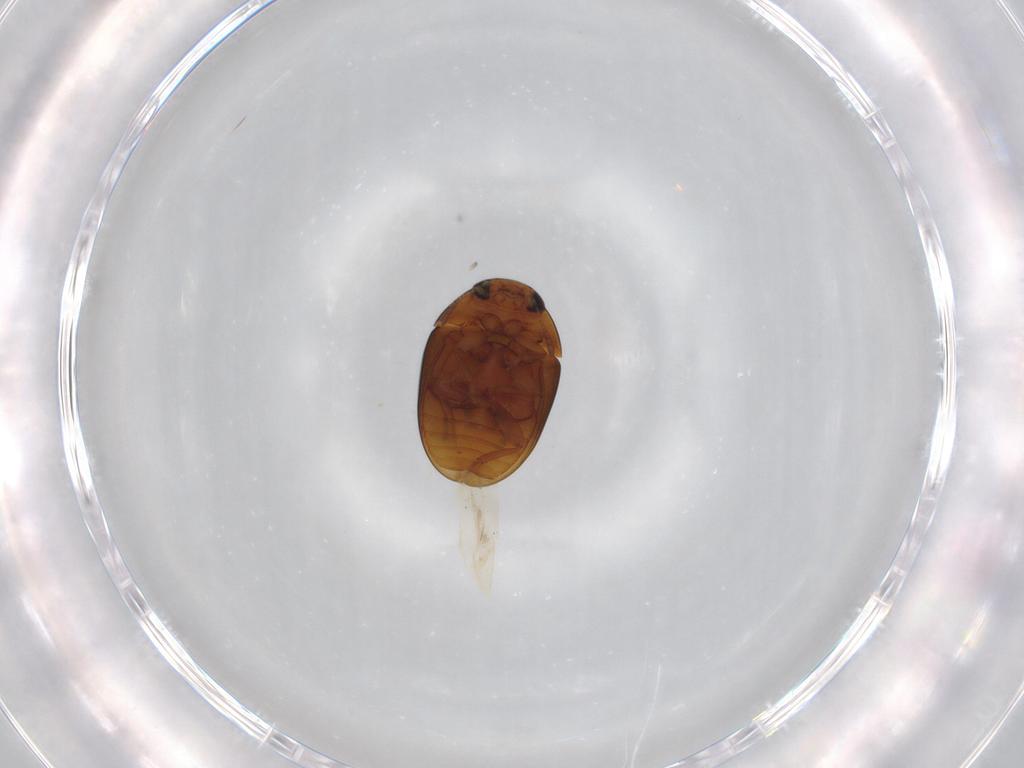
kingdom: Animalia
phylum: Arthropoda
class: Insecta
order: Coleoptera
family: Phalacridae
